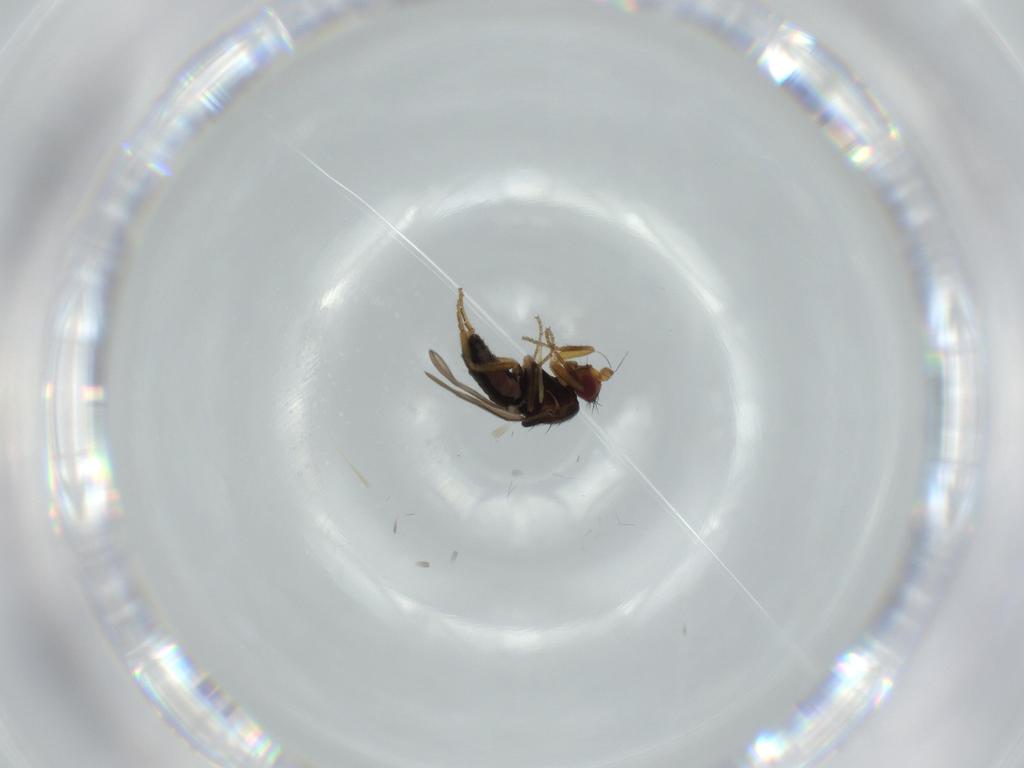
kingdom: Animalia
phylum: Arthropoda
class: Insecta
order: Diptera
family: Sphaeroceridae
